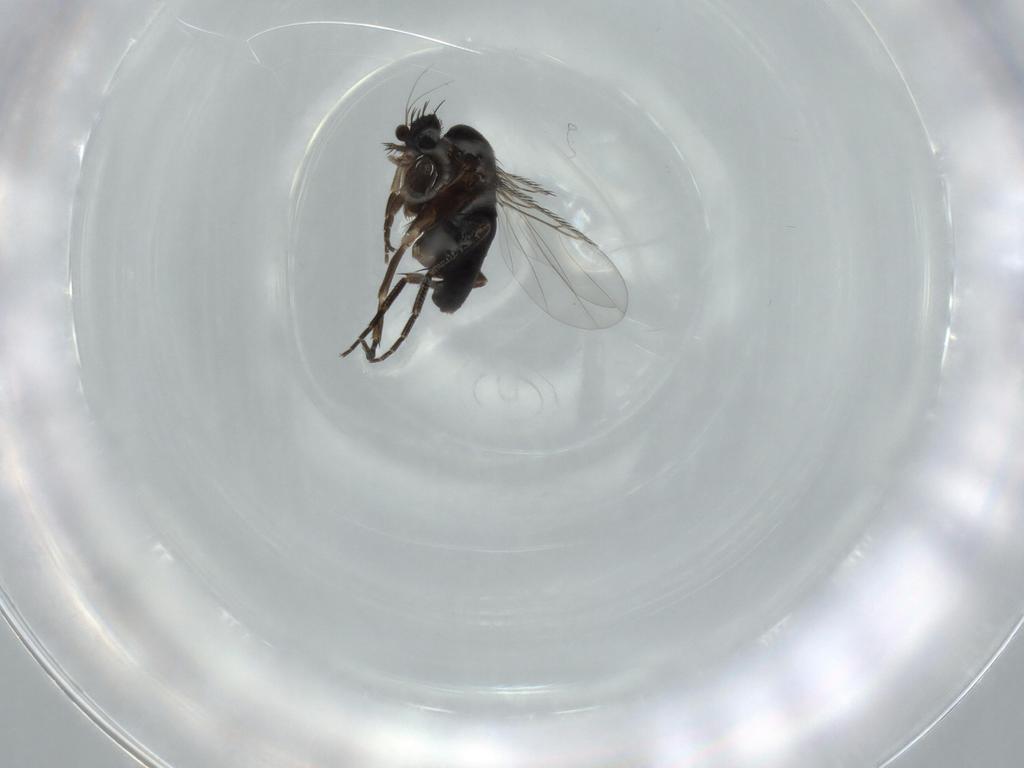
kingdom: Animalia
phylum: Arthropoda
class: Insecta
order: Diptera
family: Phoridae
